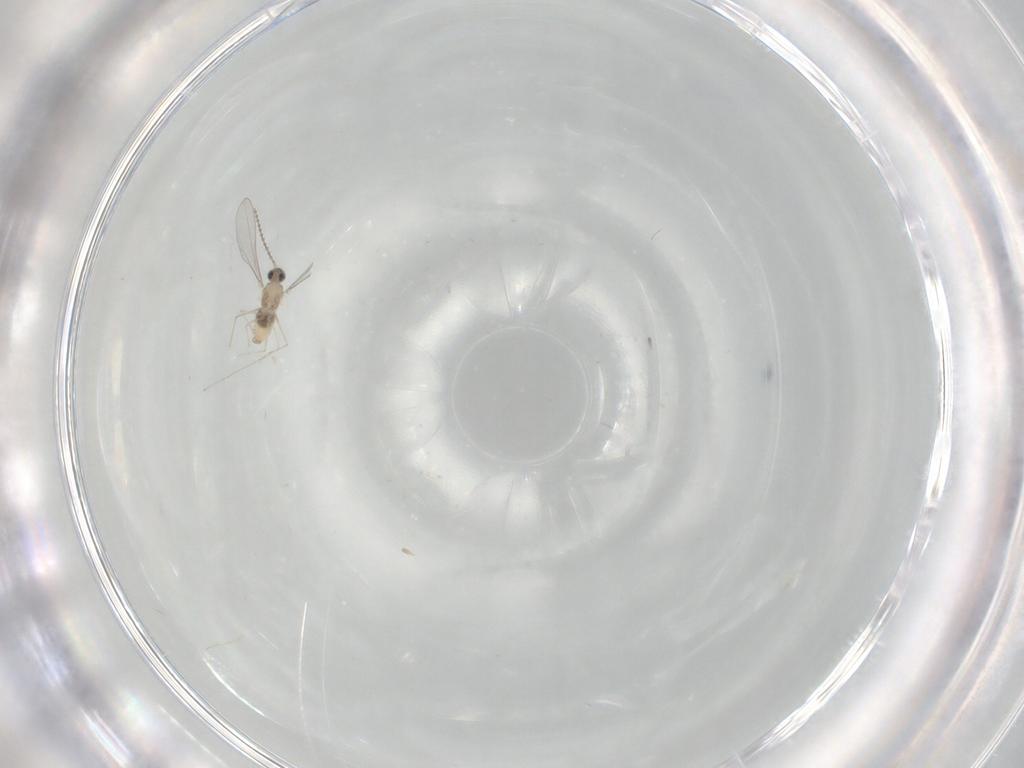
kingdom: Animalia
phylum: Arthropoda
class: Insecta
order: Diptera
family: Cecidomyiidae
